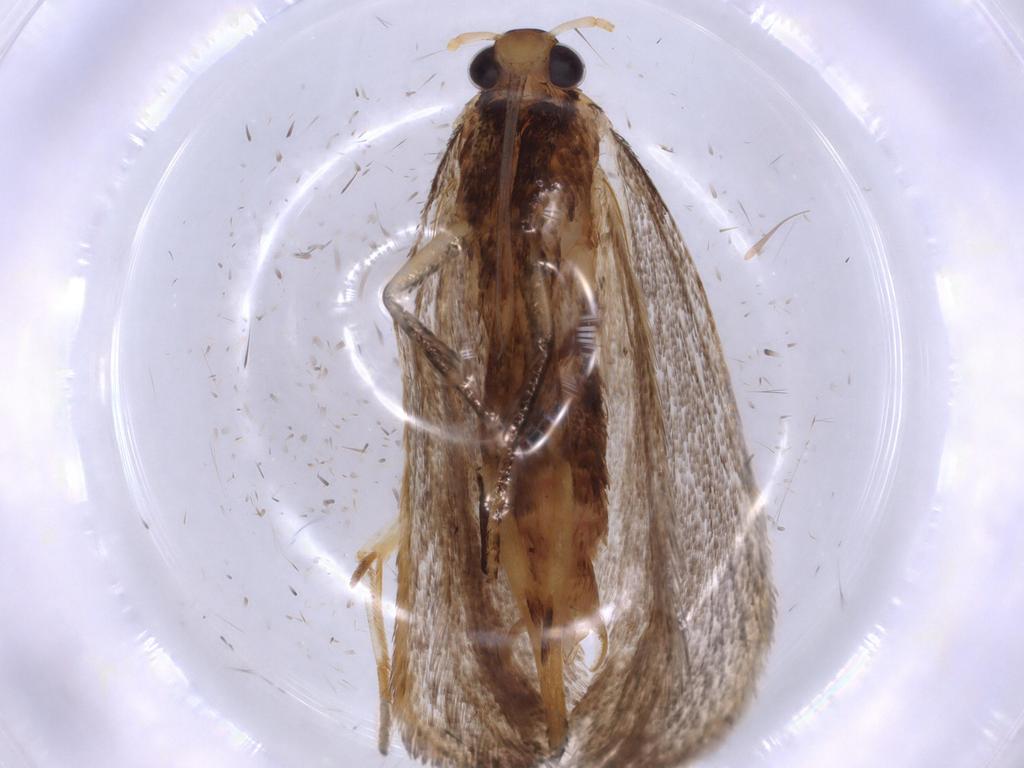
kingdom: Animalia
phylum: Arthropoda
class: Insecta
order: Lepidoptera
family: Lecithoceridae
